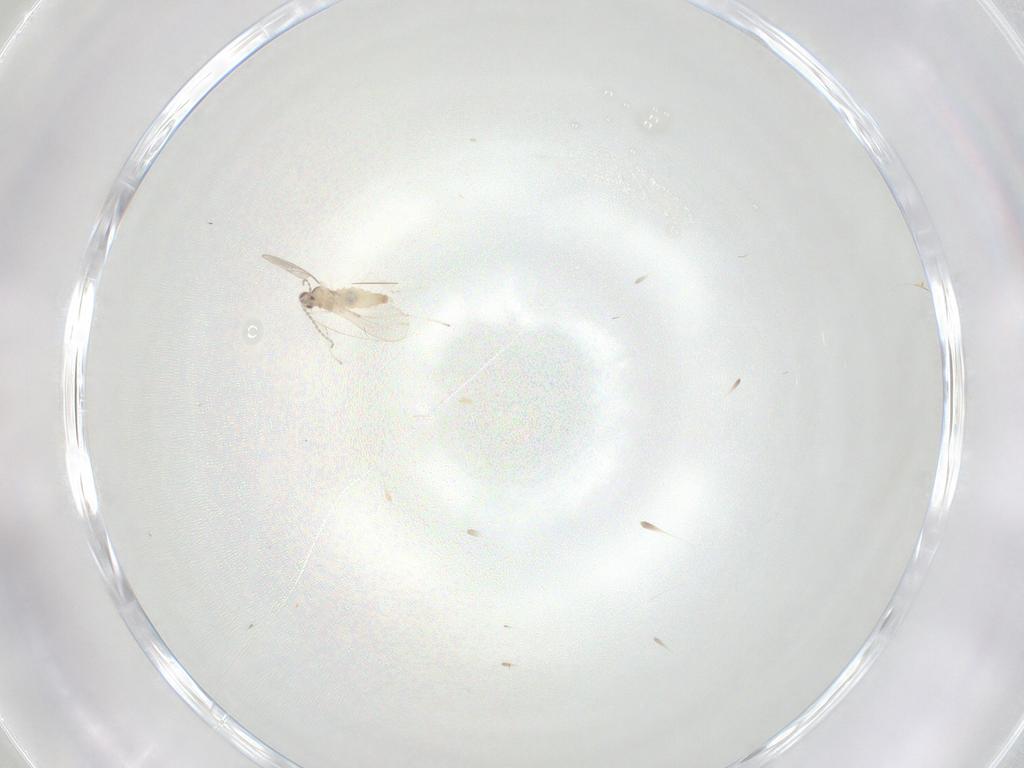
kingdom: Animalia
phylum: Arthropoda
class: Insecta
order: Diptera
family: Cecidomyiidae
